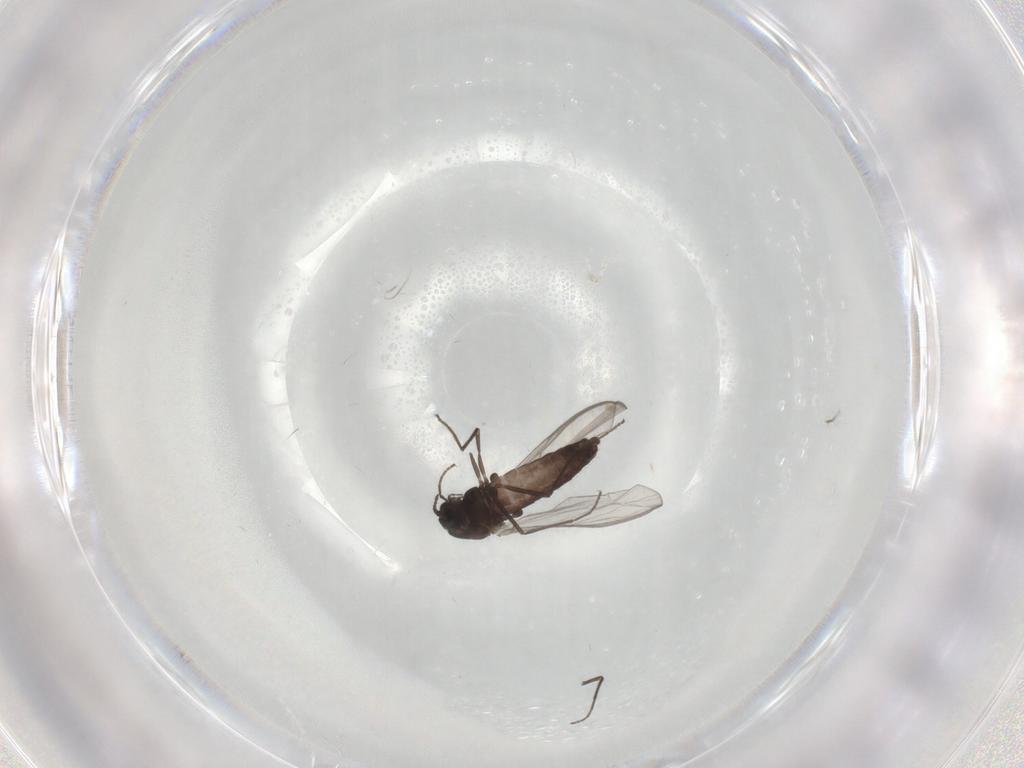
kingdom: Animalia
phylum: Arthropoda
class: Insecta
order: Diptera
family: Chironomidae
